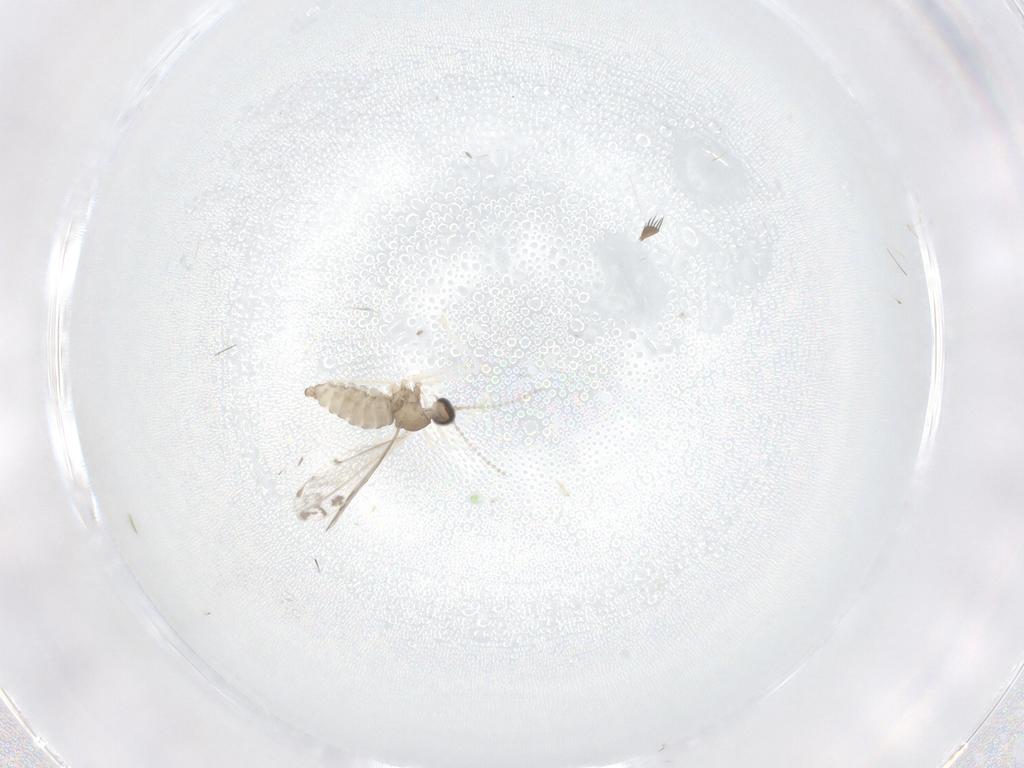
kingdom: Animalia
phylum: Arthropoda
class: Insecta
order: Diptera
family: Phoridae
